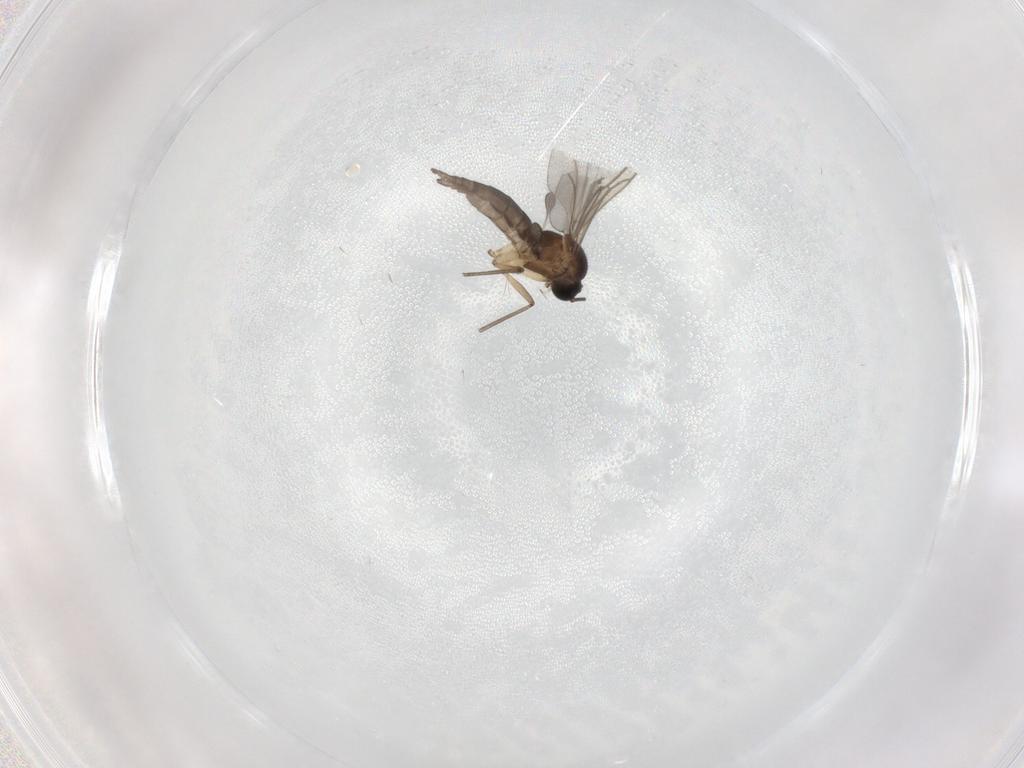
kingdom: Animalia
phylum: Arthropoda
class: Insecta
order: Diptera
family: Sciaridae
